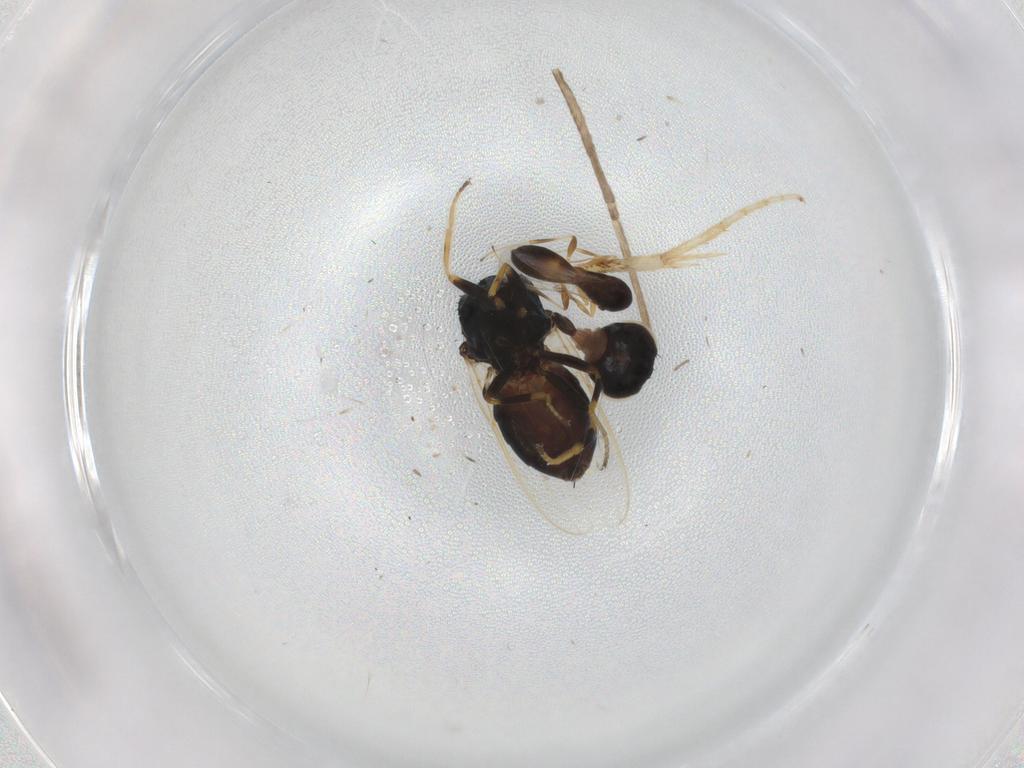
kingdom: Animalia
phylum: Arthropoda
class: Insecta
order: Diptera
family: Chloropidae
